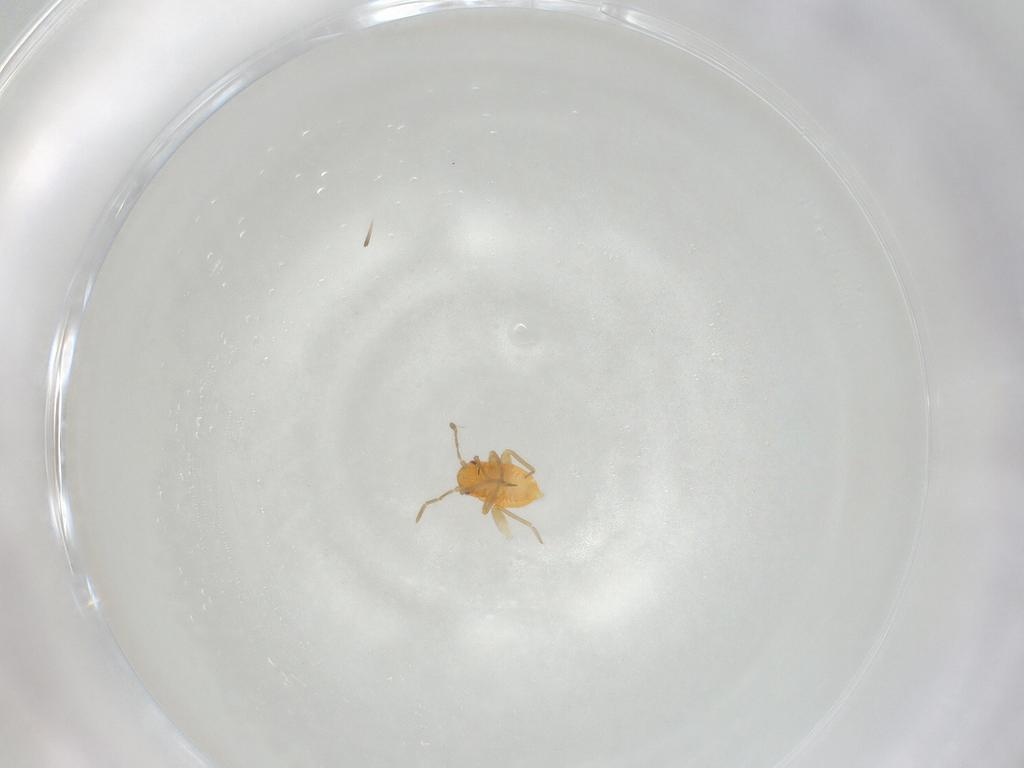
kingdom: Animalia
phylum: Arthropoda
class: Insecta
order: Hemiptera
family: Miridae
